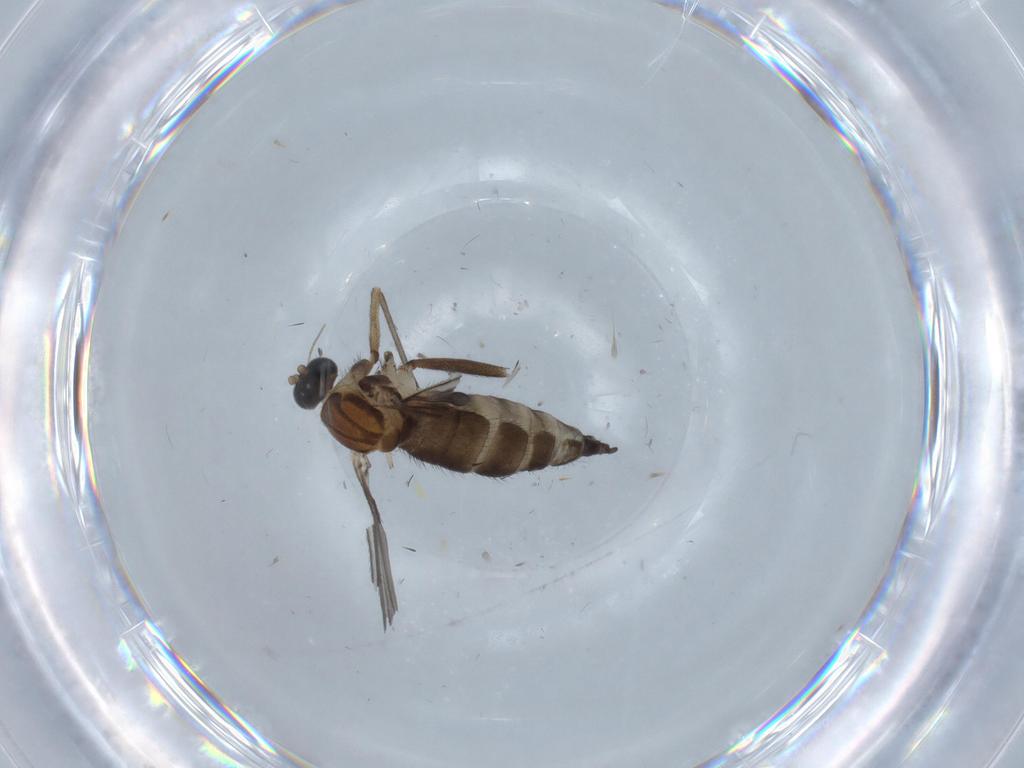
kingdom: Animalia
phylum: Arthropoda
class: Insecta
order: Diptera
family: Sciaridae
